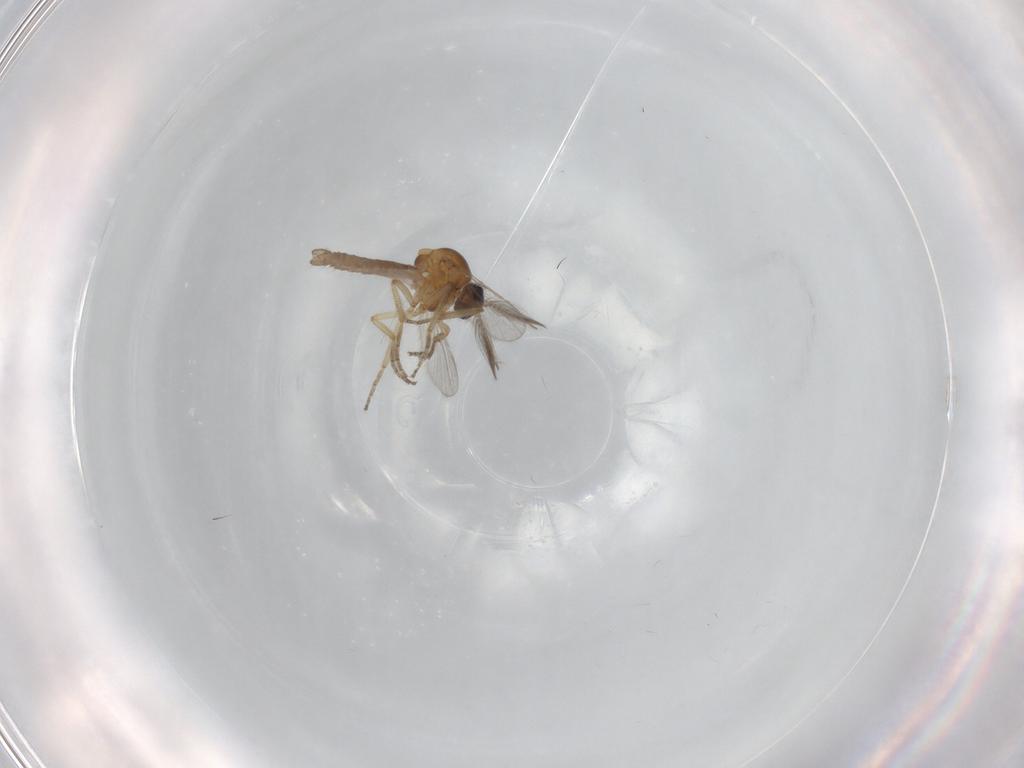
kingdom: Animalia
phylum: Arthropoda
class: Insecta
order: Diptera
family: Ceratopogonidae
